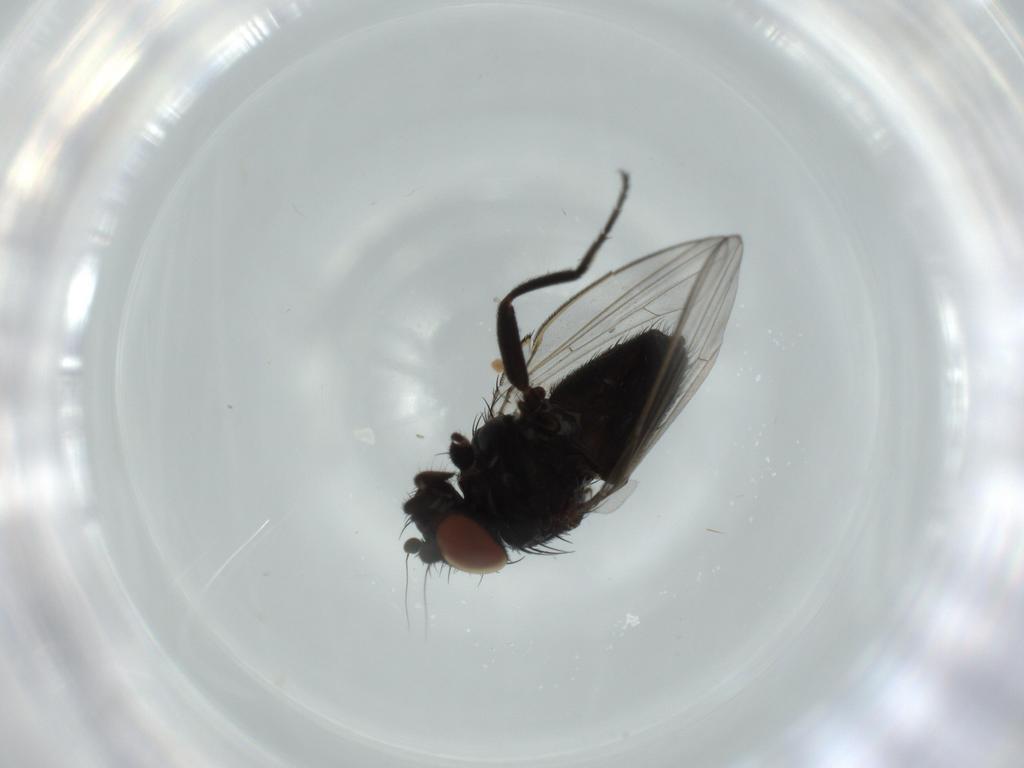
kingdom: Animalia
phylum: Arthropoda
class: Insecta
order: Diptera
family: Milichiidae
